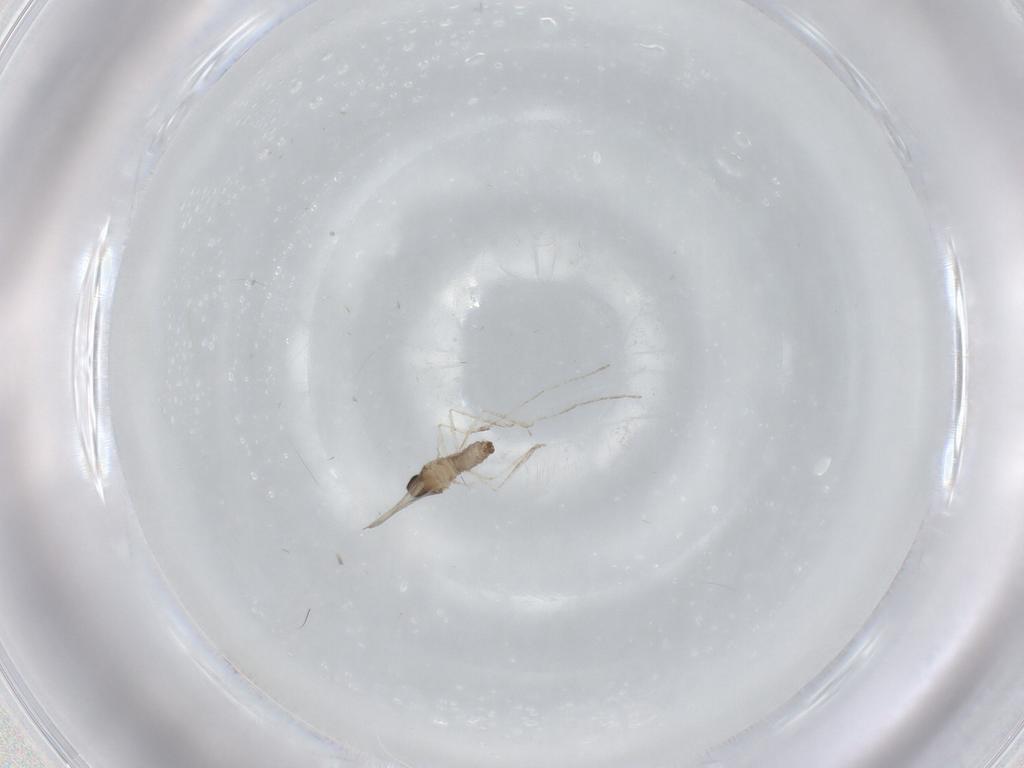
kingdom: Animalia
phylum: Arthropoda
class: Insecta
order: Diptera
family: Cecidomyiidae
